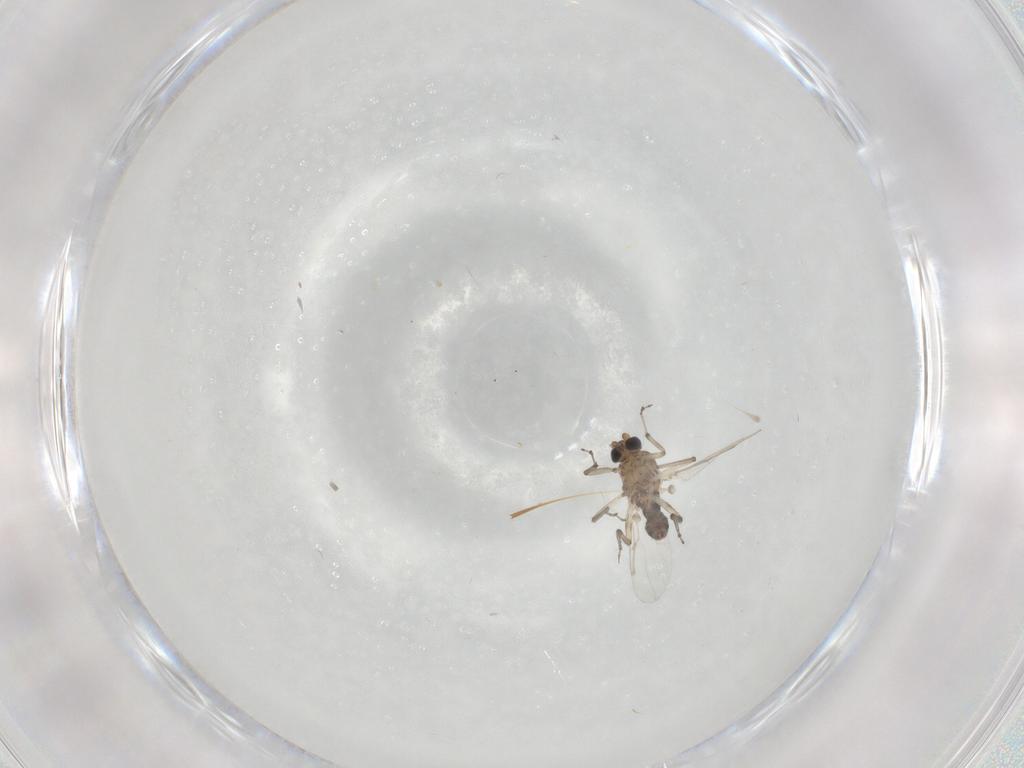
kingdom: Animalia
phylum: Arthropoda
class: Insecta
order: Diptera
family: Ceratopogonidae
